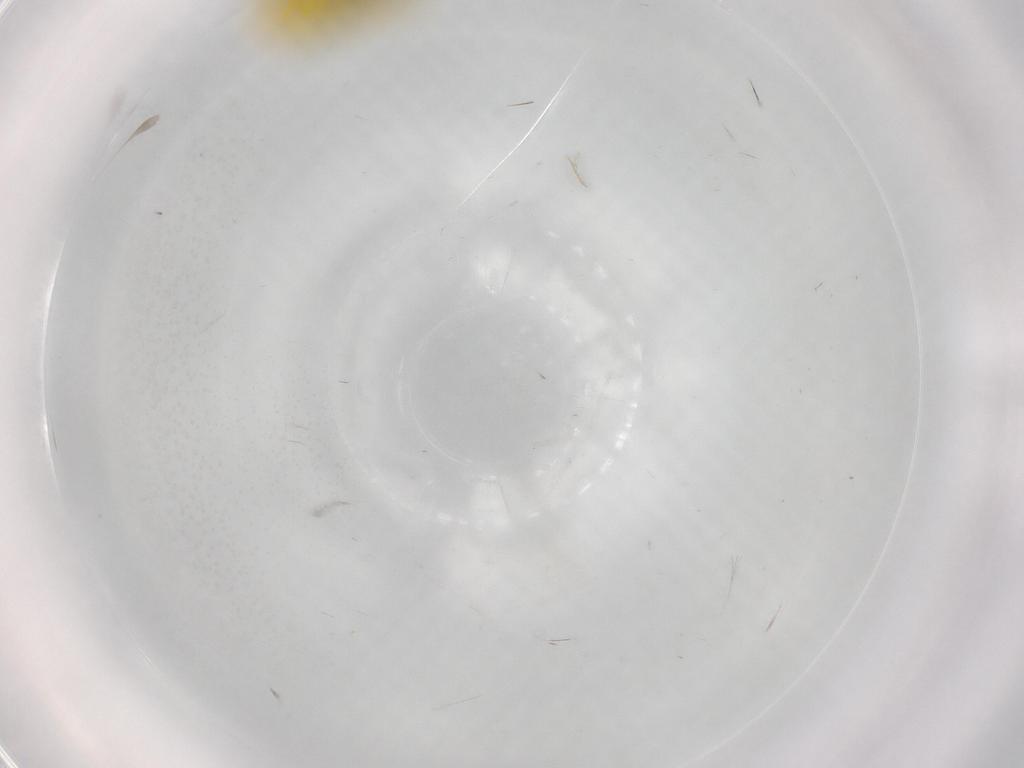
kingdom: Animalia
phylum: Arthropoda
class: Insecta
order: Hemiptera
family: Cicadellidae
